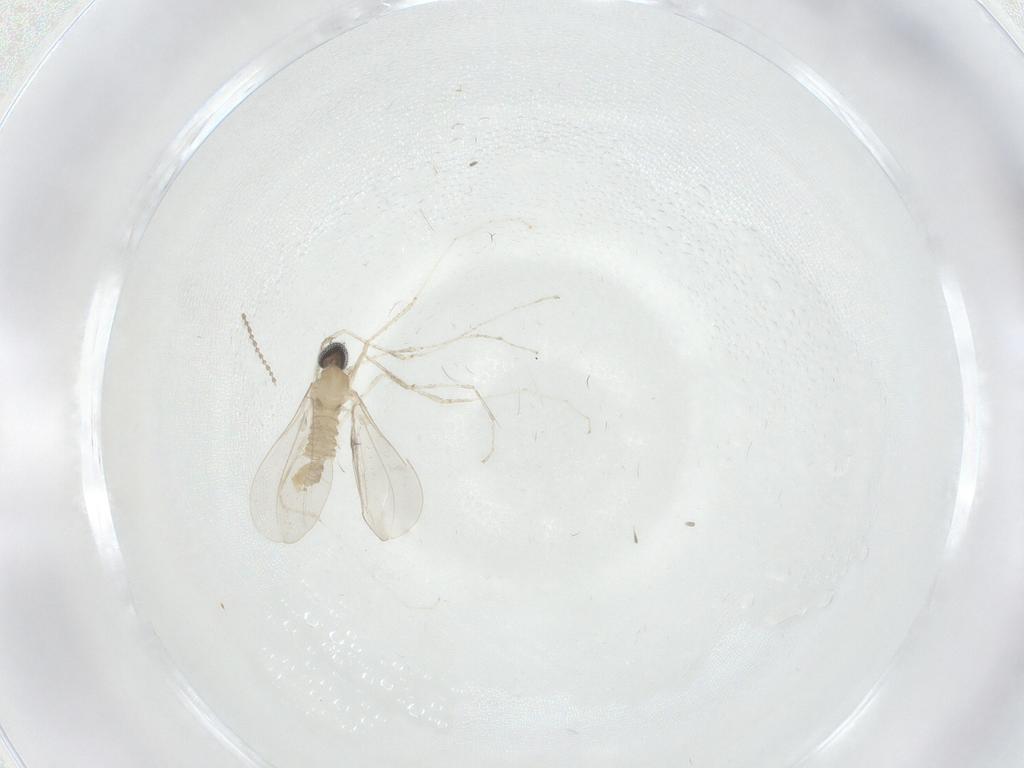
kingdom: Animalia
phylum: Arthropoda
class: Insecta
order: Diptera
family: Cecidomyiidae
